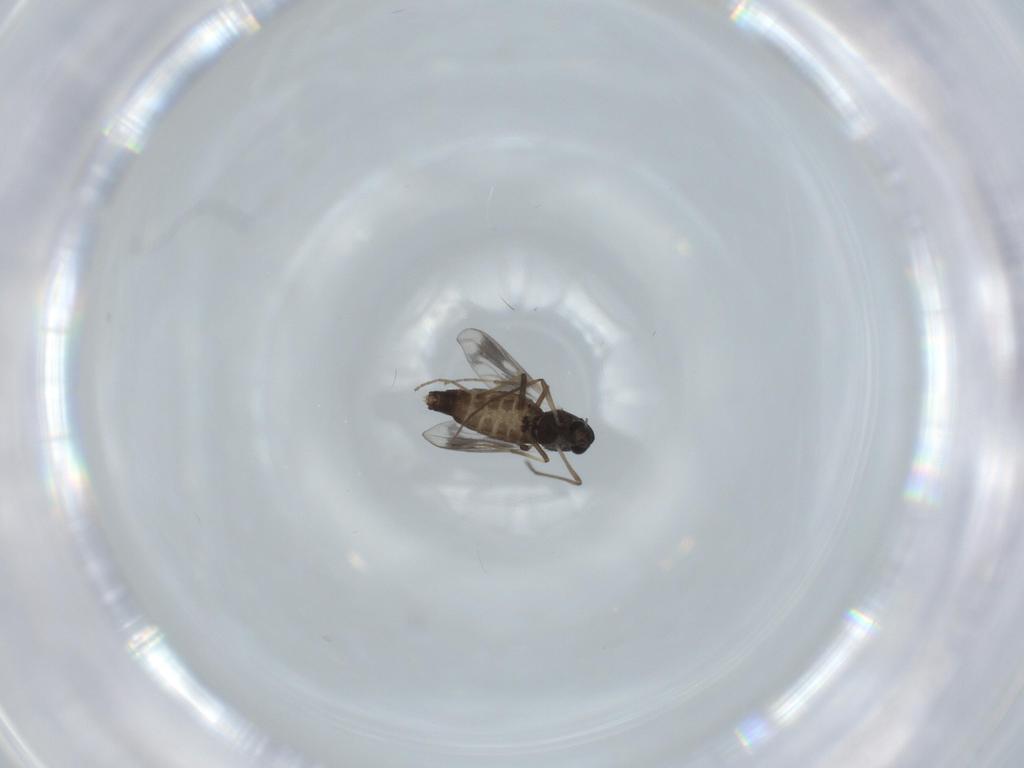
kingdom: Animalia
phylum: Arthropoda
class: Insecta
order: Diptera
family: Chironomidae
